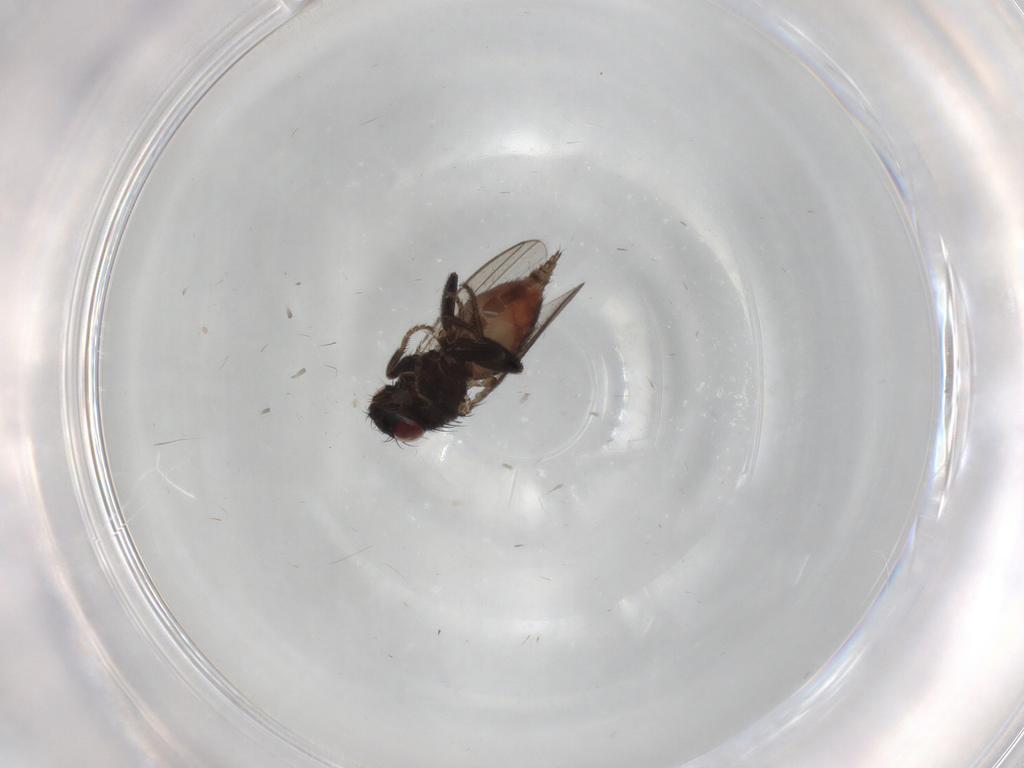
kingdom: Animalia
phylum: Arthropoda
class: Insecta
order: Diptera
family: Milichiidae
